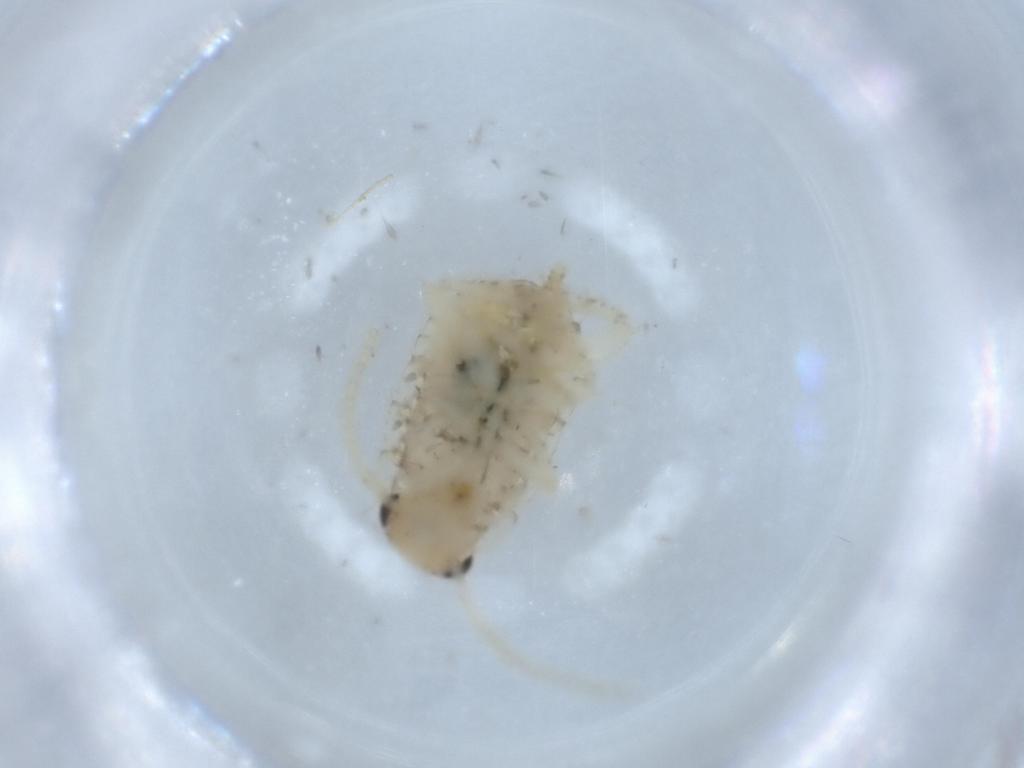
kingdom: Animalia
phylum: Arthropoda
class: Insecta
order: Blattodea
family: Ectobiidae
